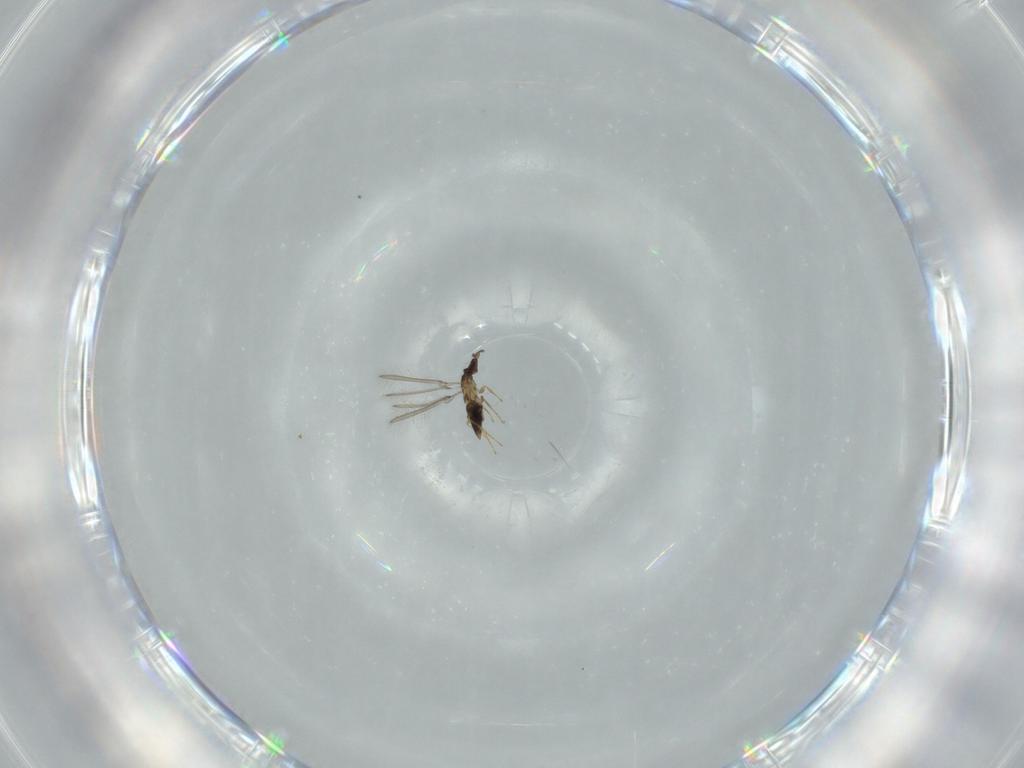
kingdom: Animalia
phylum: Arthropoda
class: Insecta
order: Hymenoptera
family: Mymaridae
